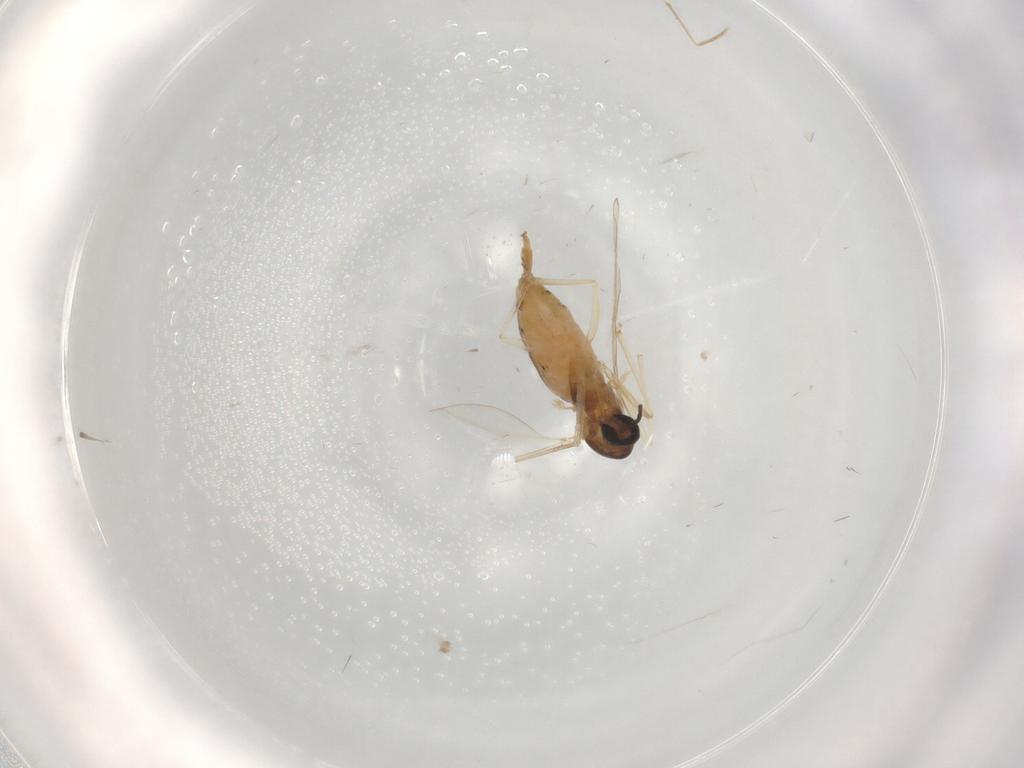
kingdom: Animalia
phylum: Arthropoda
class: Insecta
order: Diptera
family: Cecidomyiidae
